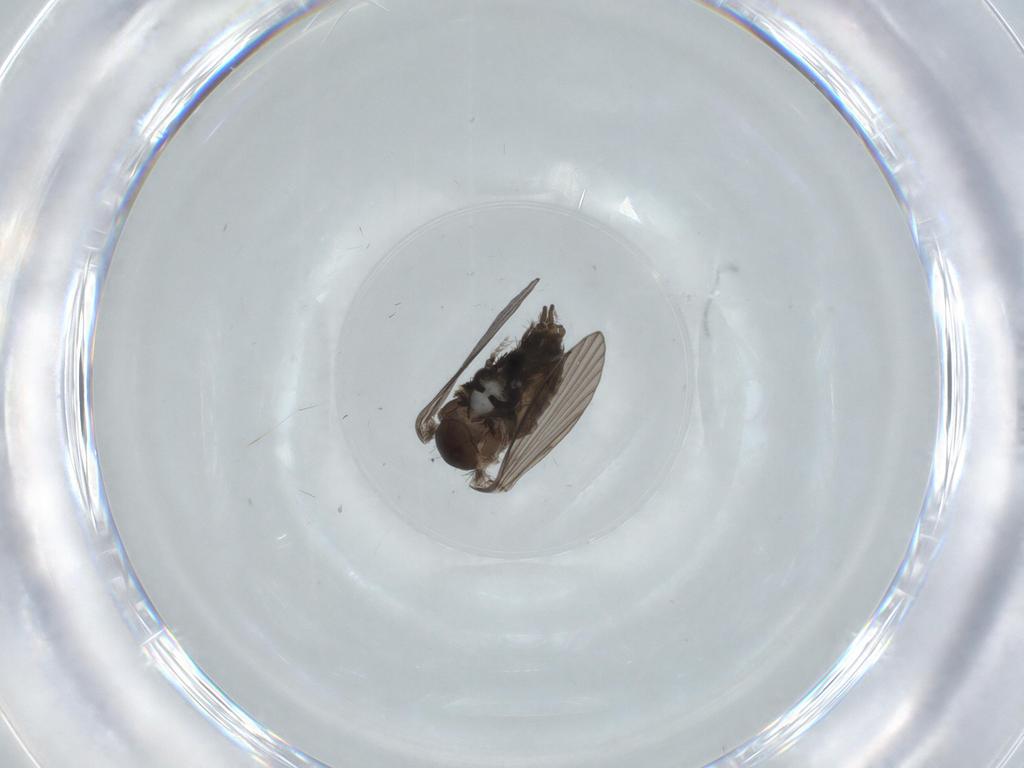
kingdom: Animalia
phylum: Arthropoda
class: Insecta
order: Diptera
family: Psychodidae
